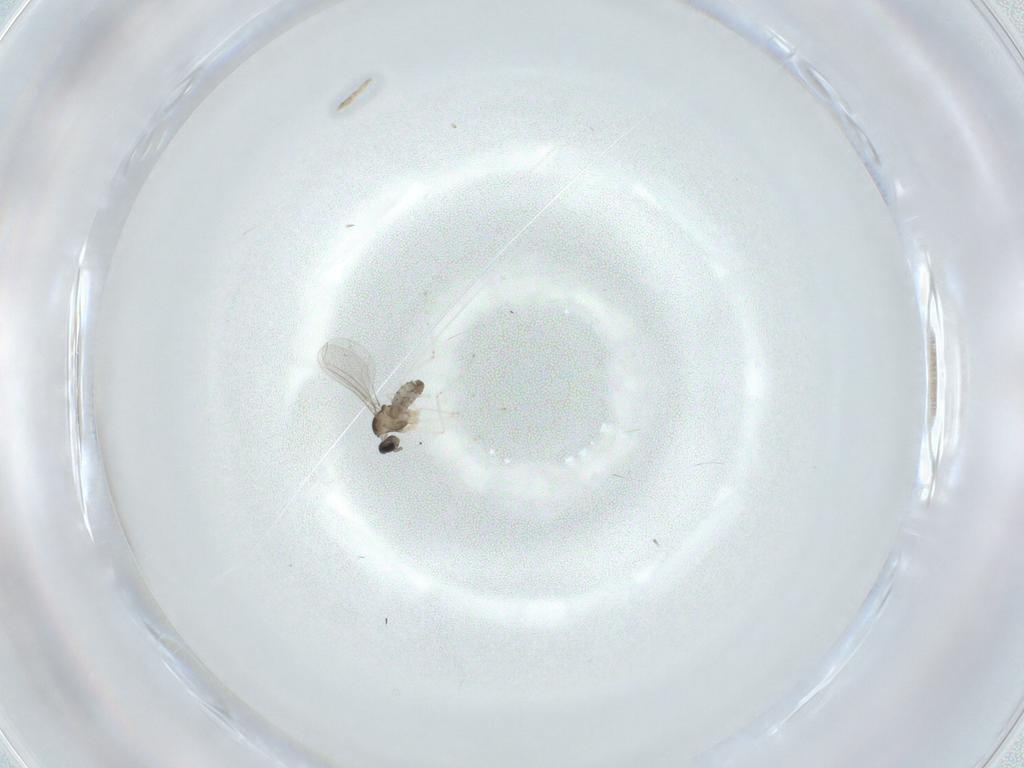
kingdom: Animalia
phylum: Arthropoda
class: Insecta
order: Diptera
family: Cecidomyiidae
